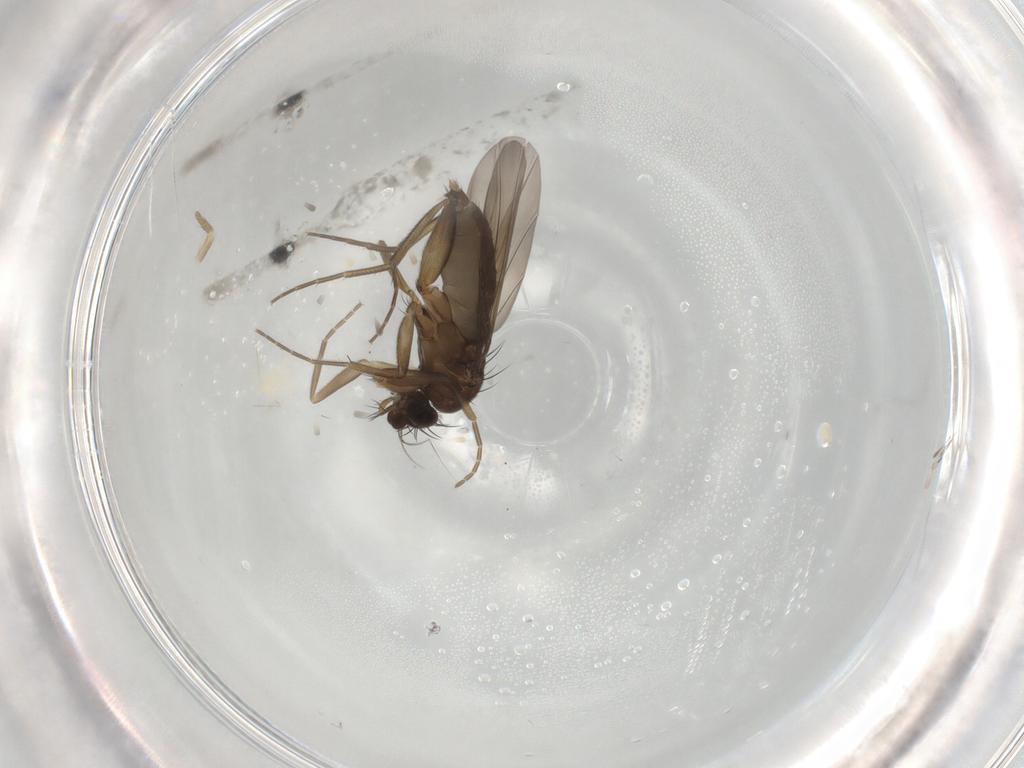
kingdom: Animalia
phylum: Arthropoda
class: Insecta
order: Diptera
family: Phoridae
